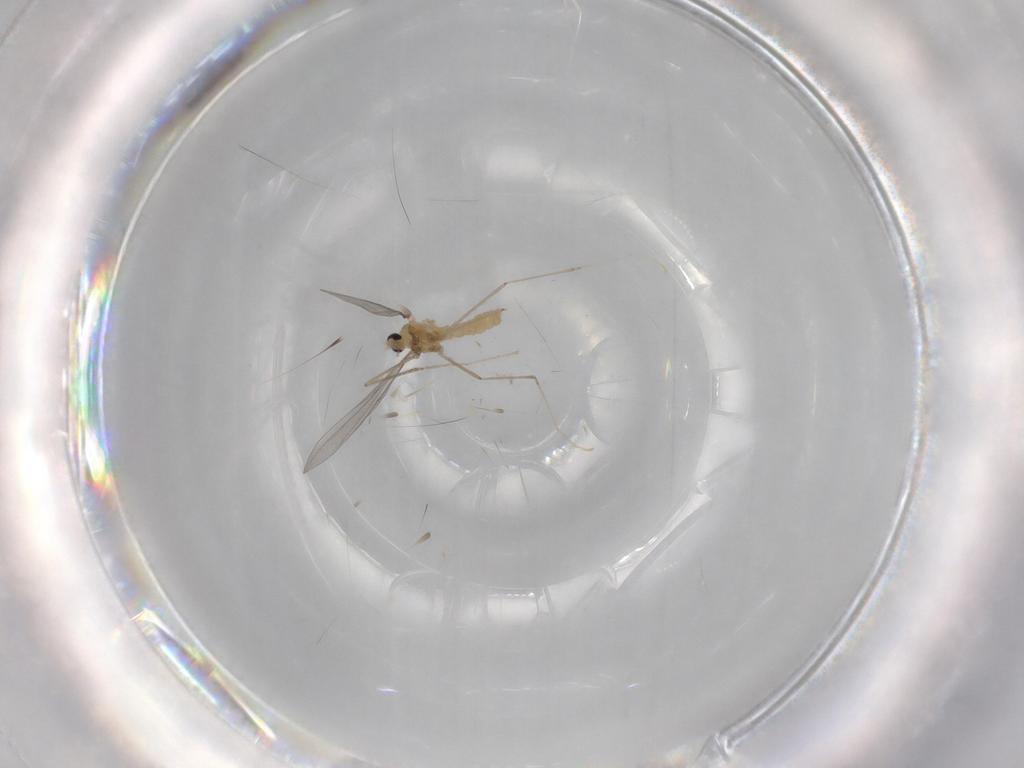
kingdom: Animalia
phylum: Arthropoda
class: Insecta
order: Diptera
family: Cecidomyiidae
